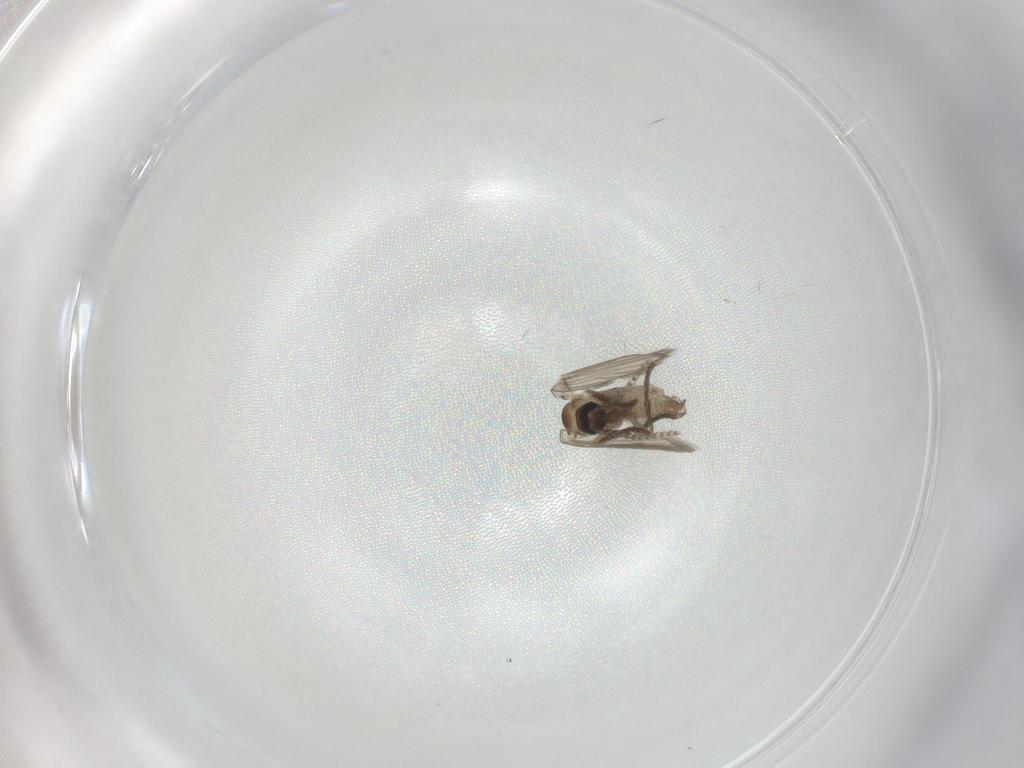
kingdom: Animalia
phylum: Arthropoda
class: Insecta
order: Diptera
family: Psychodidae
